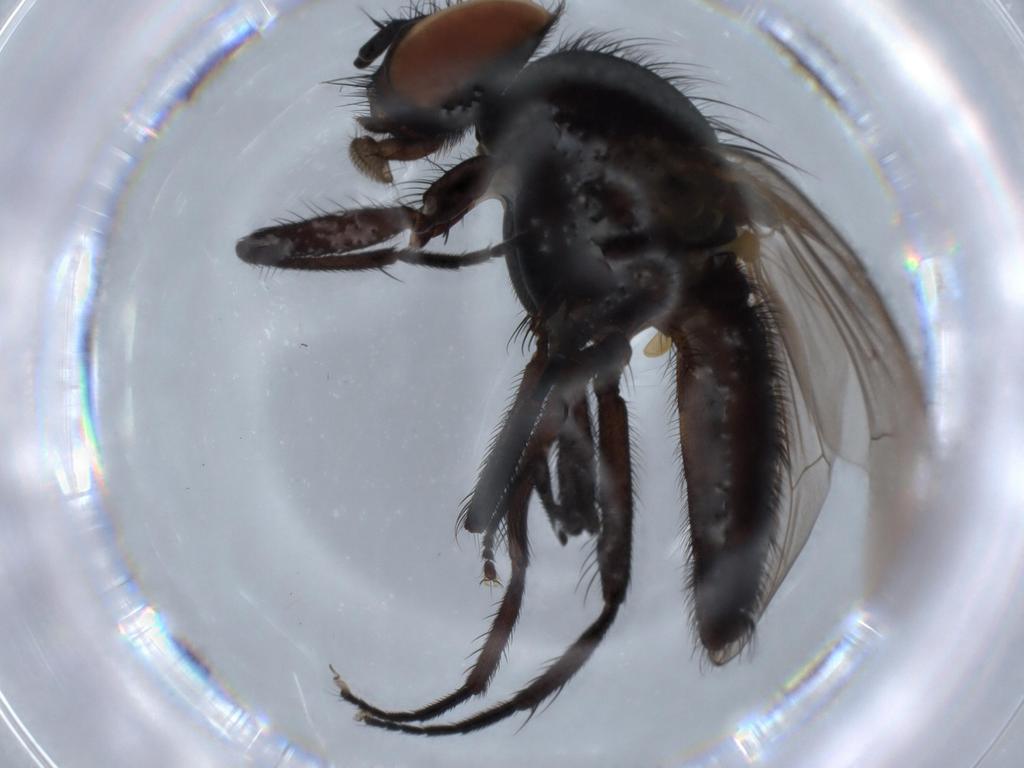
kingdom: Animalia
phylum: Arthropoda
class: Insecta
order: Diptera
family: Fannia
